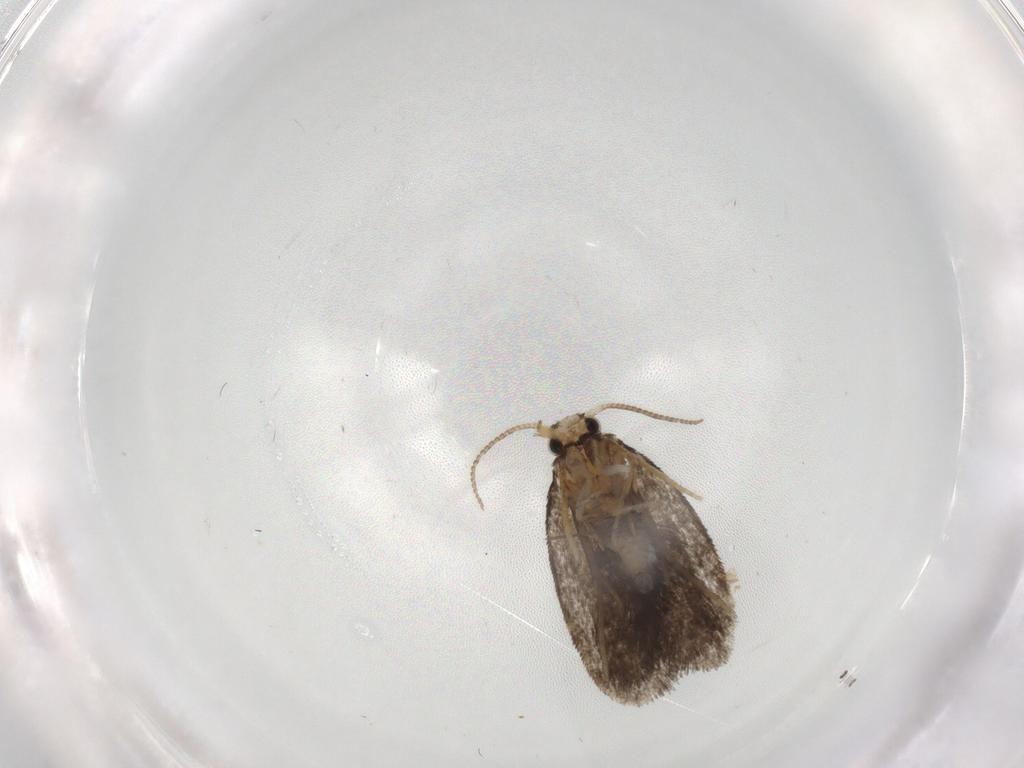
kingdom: Animalia
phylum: Arthropoda
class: Insecta
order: Lepidoptera
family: Psychidae
